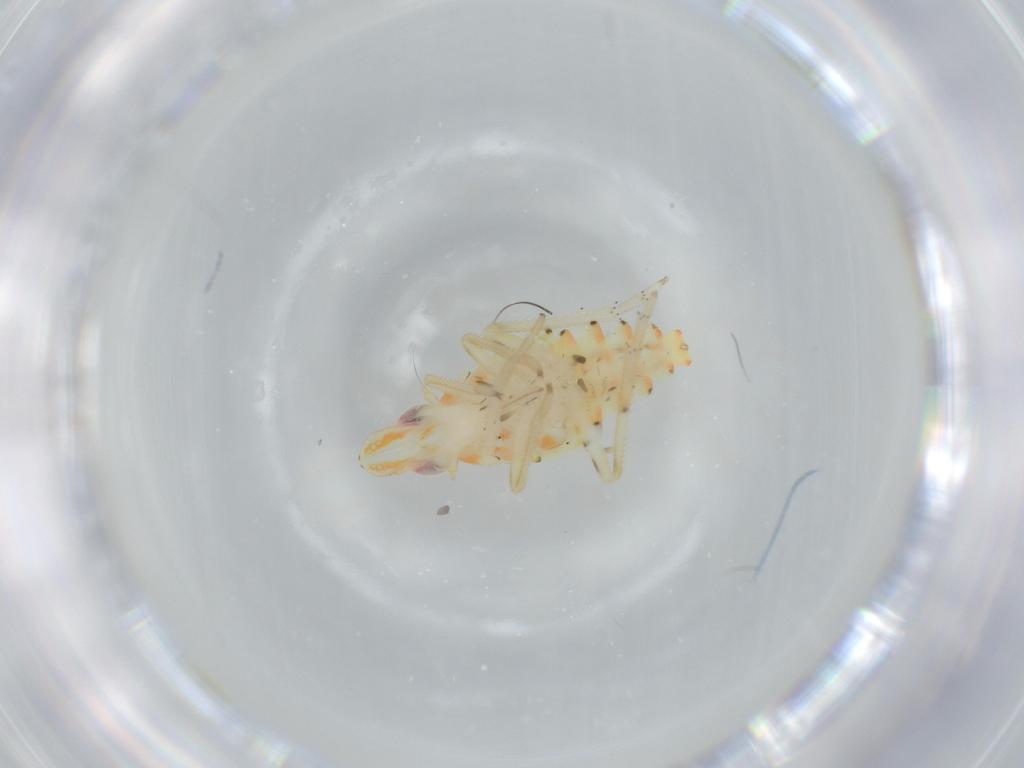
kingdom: Animalia
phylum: Arthropoda
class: Insecta
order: Hemiptera
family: Tropiduchidae
